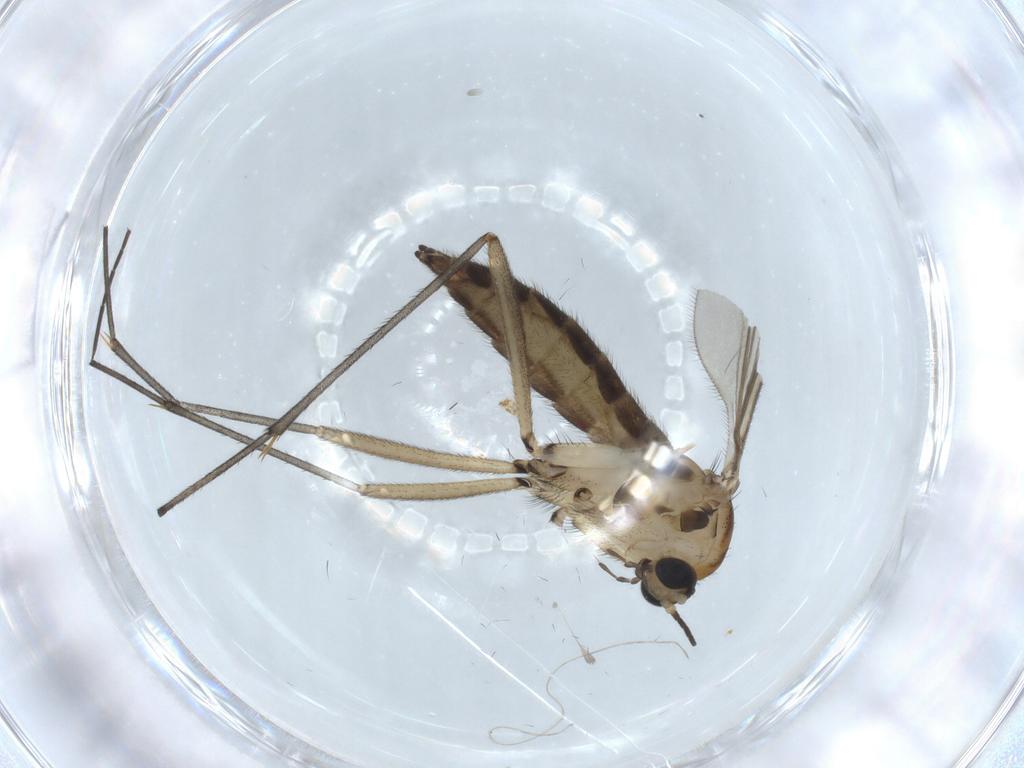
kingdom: Animalia
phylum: Arthropoda
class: Insecta
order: Diptera
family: Sciaridae
